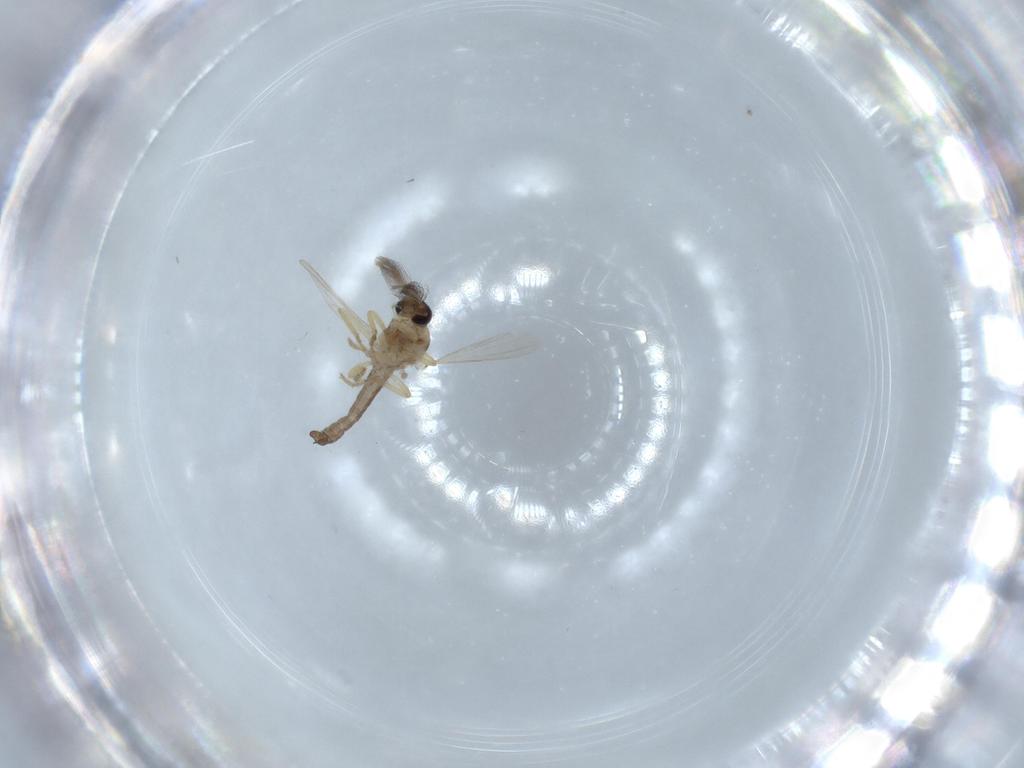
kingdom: Animalia
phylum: Arthropoda
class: Insecta
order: Diptera
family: Ceratopogonidae
